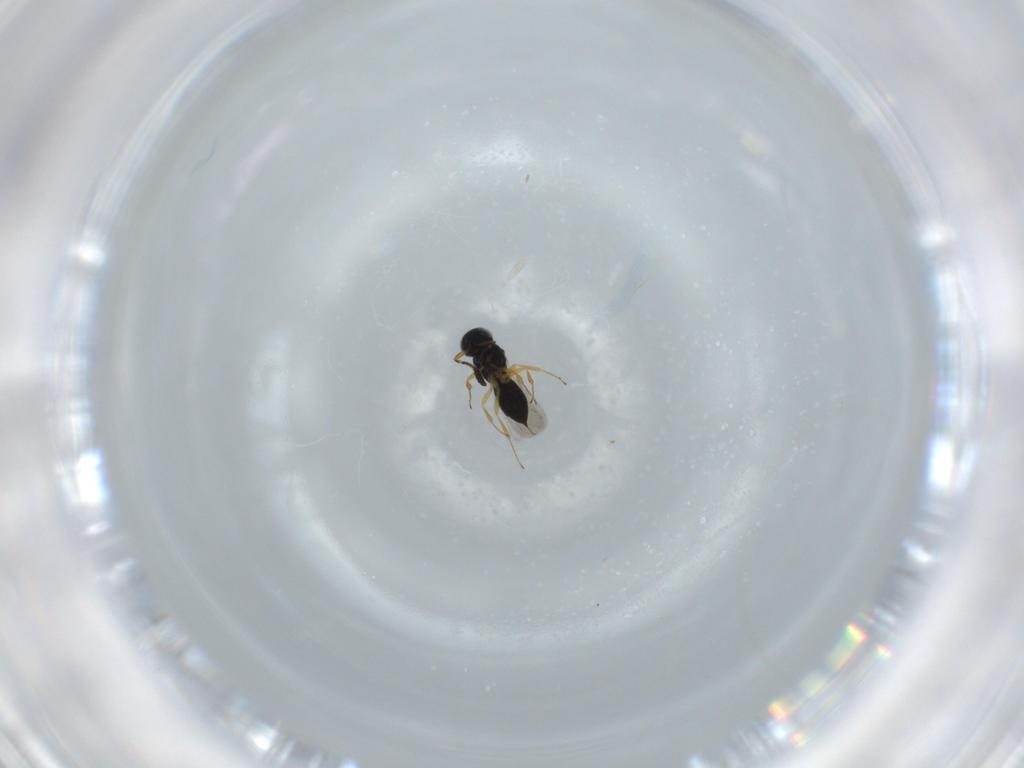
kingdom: Animalia
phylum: Arthropoda
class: Insecta
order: Hymenoptera
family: Scelionidae
